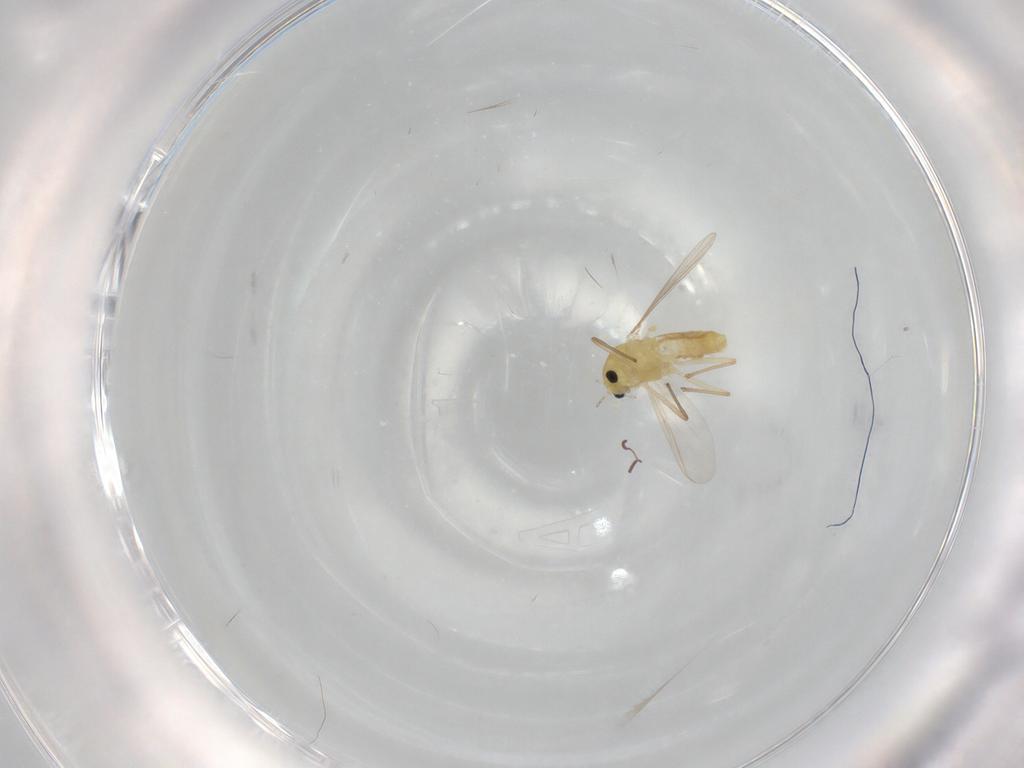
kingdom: Animalia
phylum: Arthropoda
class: Insecta
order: Diptera
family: Chironomidae
